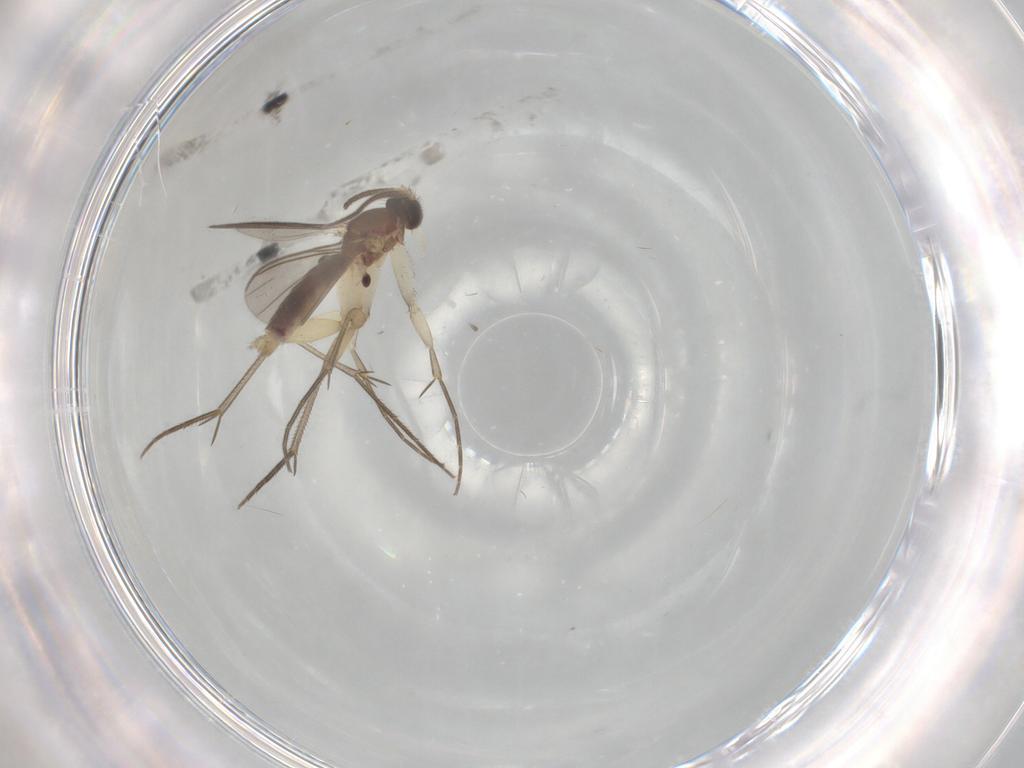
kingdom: Animalia
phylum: Arthropoda
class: Insecta
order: Diptera
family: Mycetophilidae
